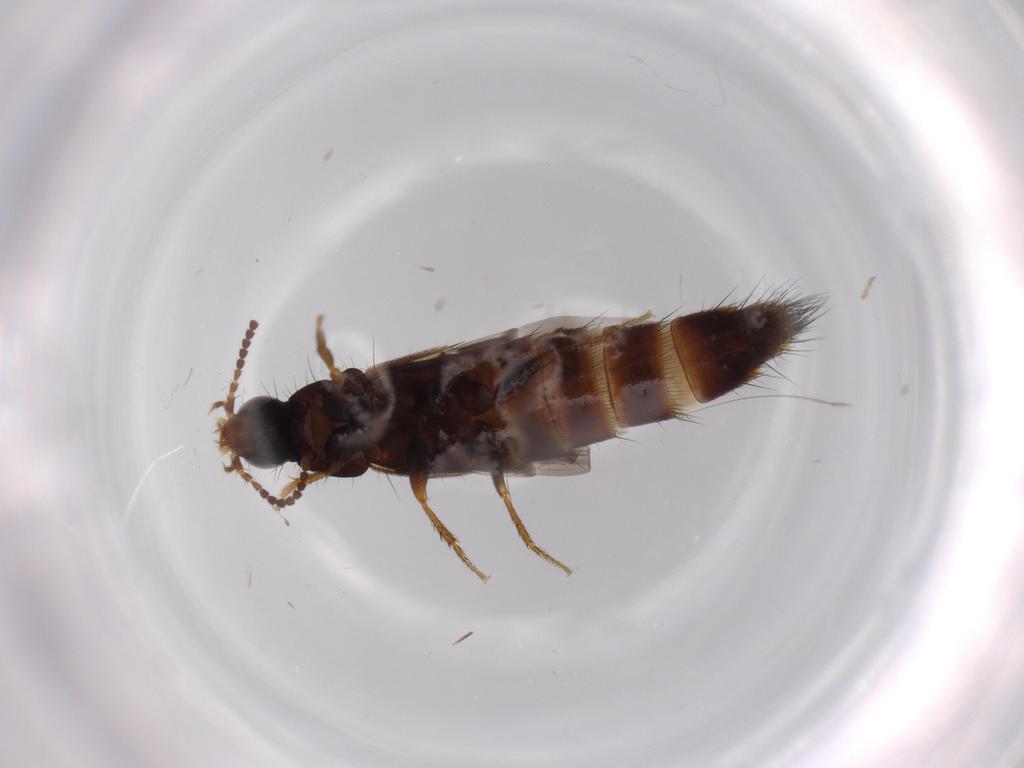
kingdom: Animalia
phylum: Arthropoda
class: Insecta
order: Coleoptera
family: Staphylinidae
